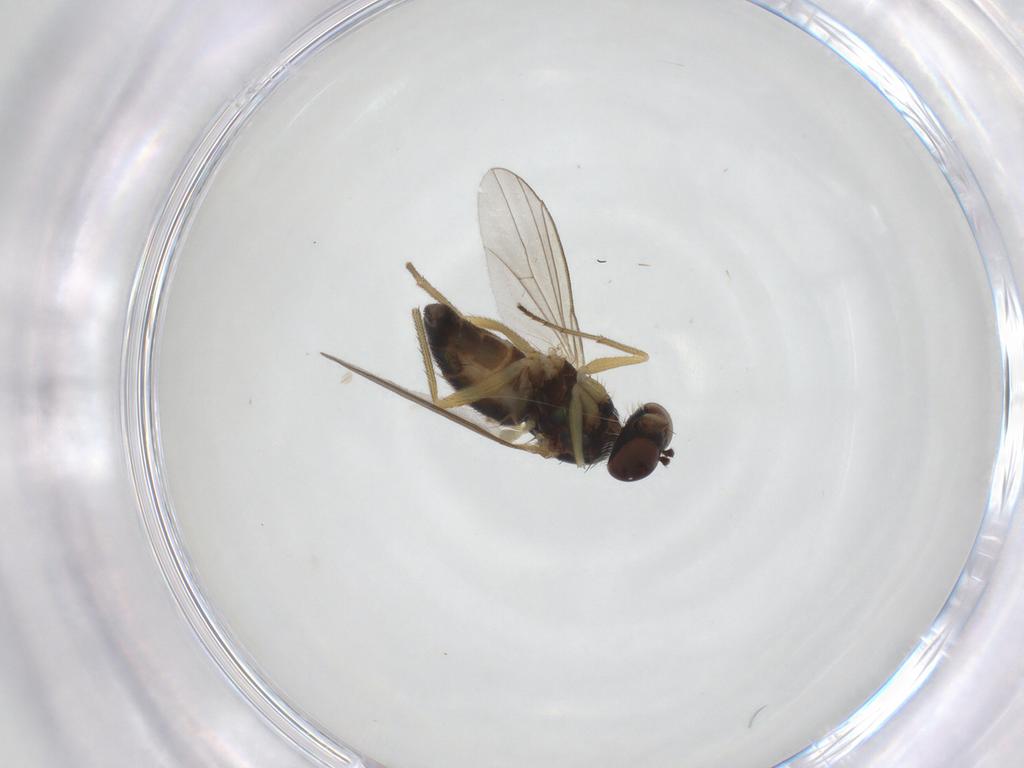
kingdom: Animalia
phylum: Arthropoda
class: Insecta
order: Diptera
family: Dolichopodidae
